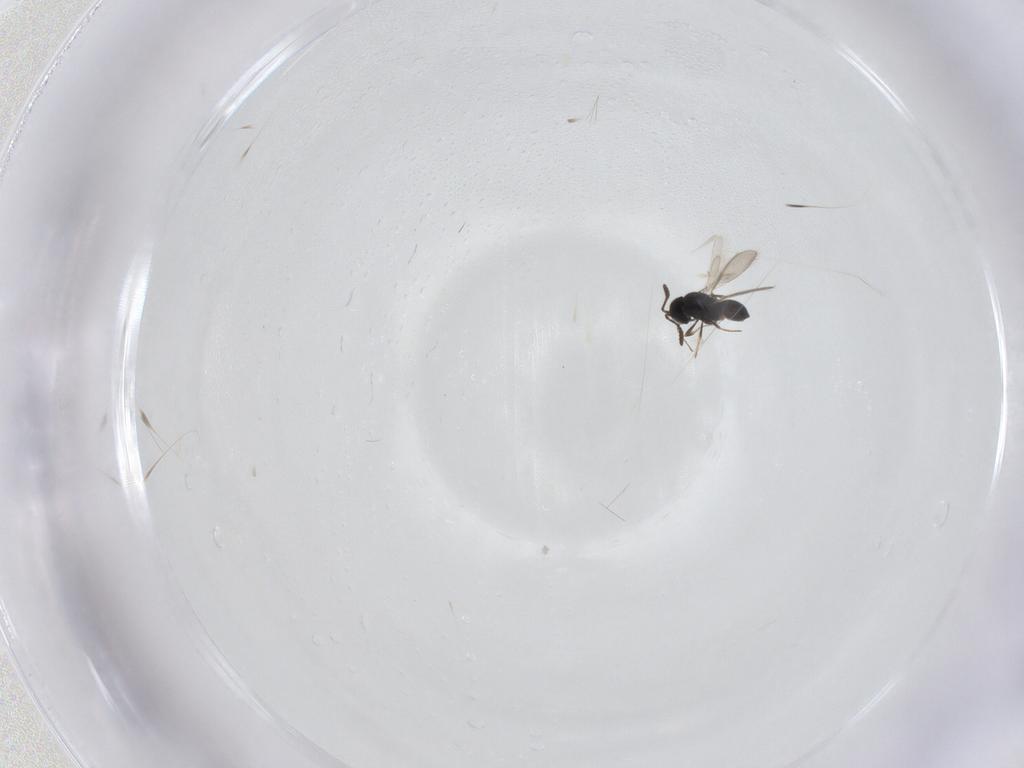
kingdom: Animalia
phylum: Arthropoda
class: Insecta
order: Hymenoptera
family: Scelionidae
